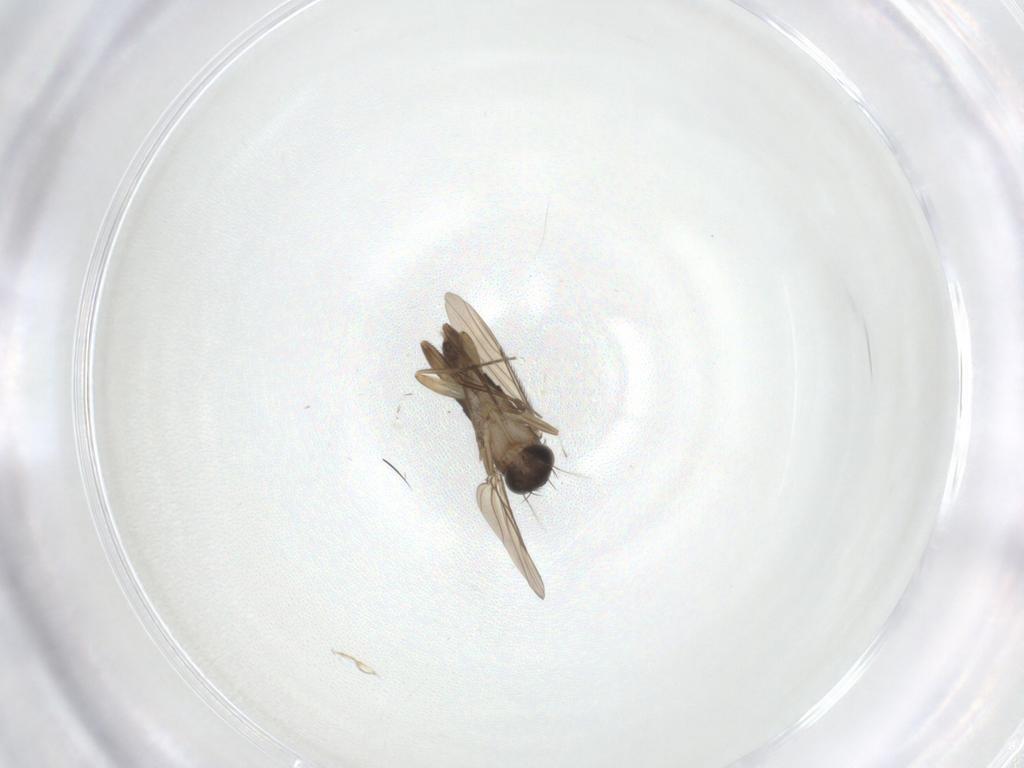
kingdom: Animalia
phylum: Arthropoda
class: Insecta
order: Diptera
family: Phoridae
